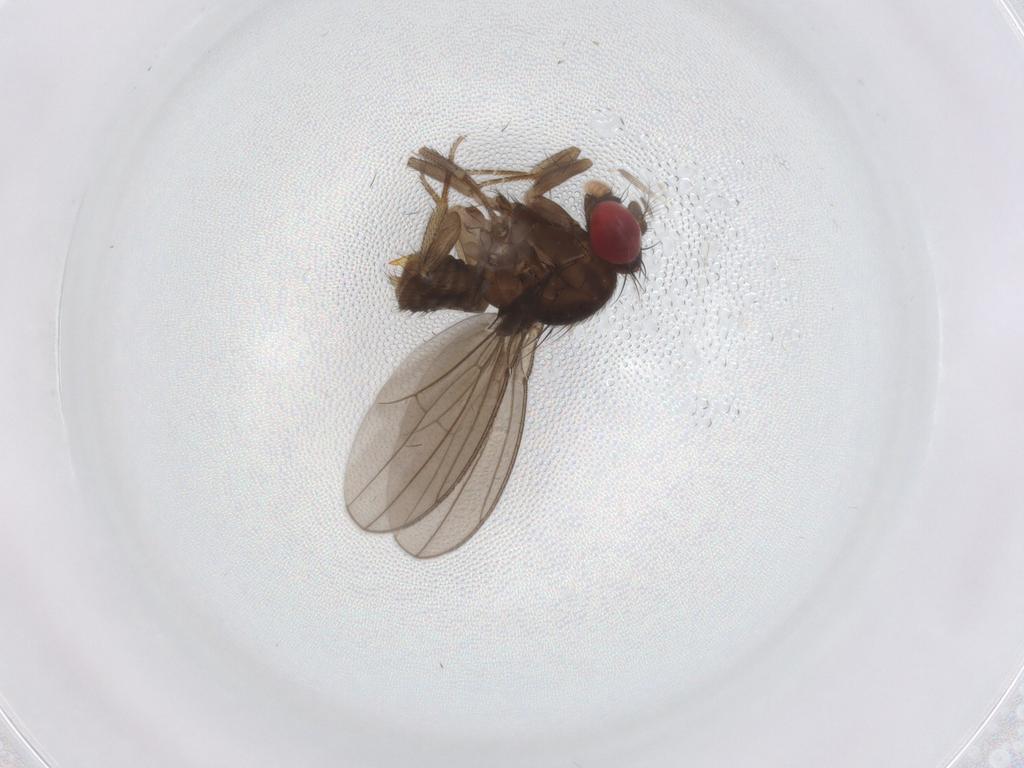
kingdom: Animalia
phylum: Arthropoda
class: Insecta
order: Diptera
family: Drosophilidae
